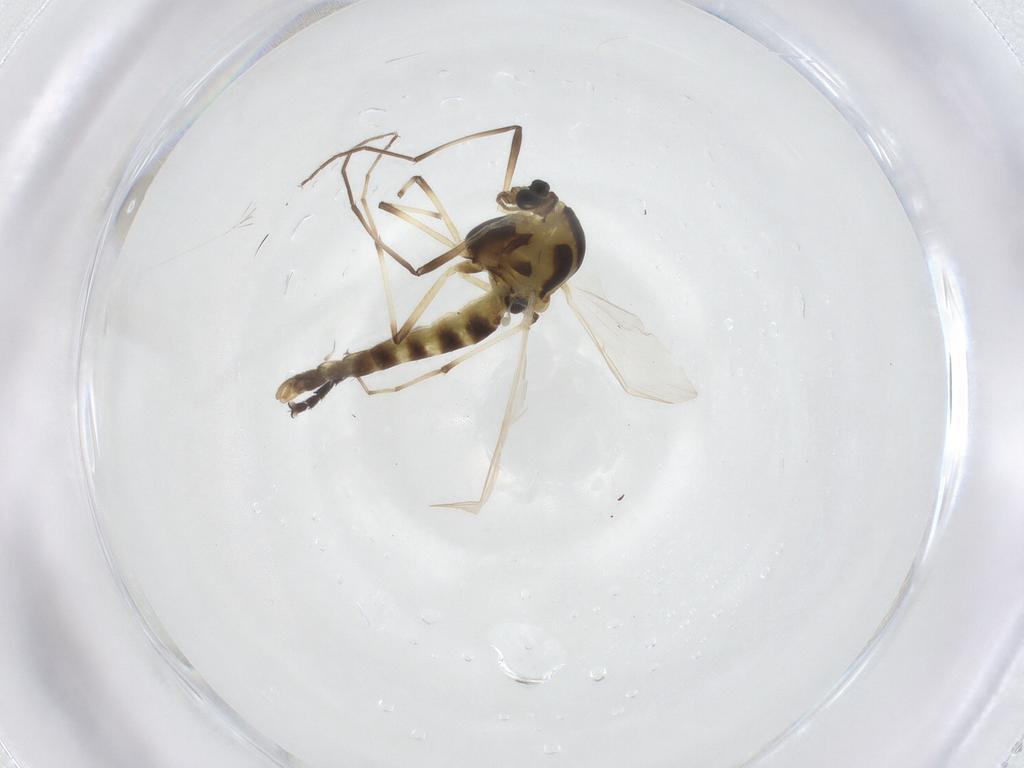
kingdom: Animalia
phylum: Arthropoda
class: Insecta
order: Diptera
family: Chironomidae
